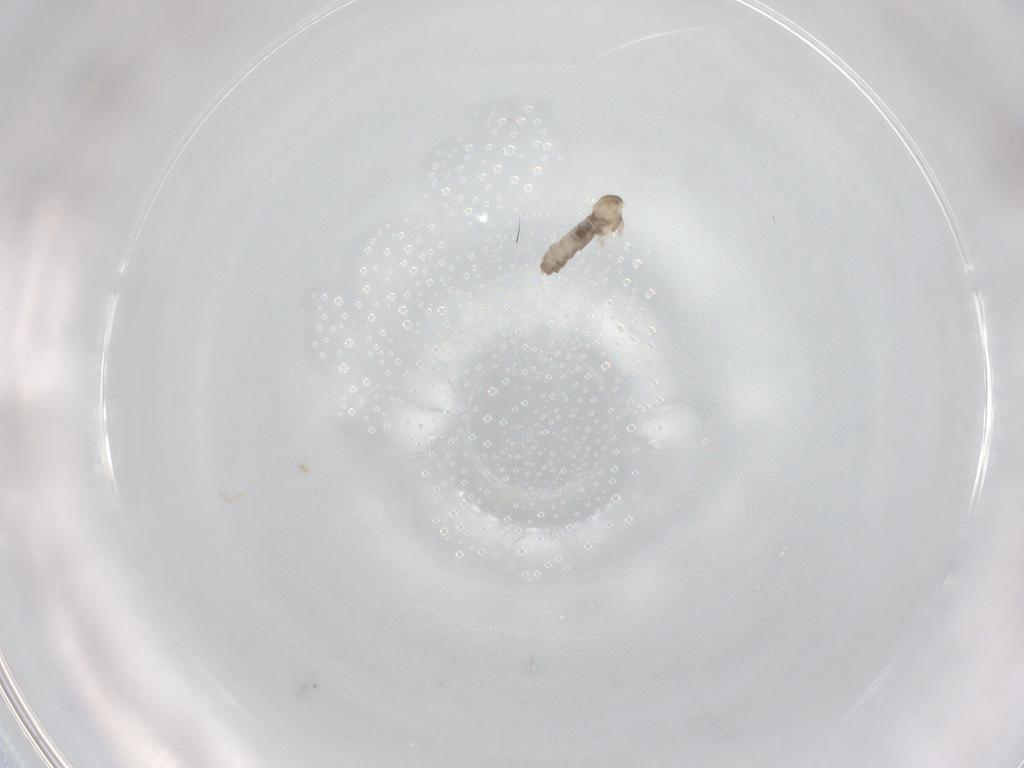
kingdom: Animalia
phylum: Arthropoda
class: Insecta
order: Diptera
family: Cecidomyiidae
